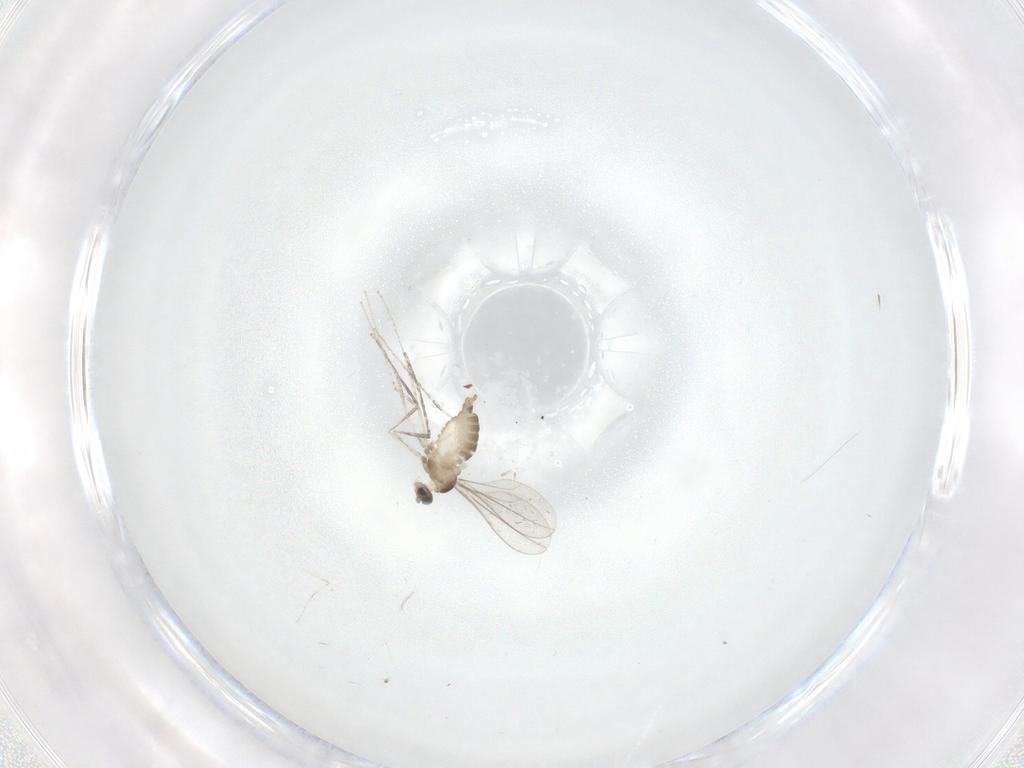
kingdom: Animalia
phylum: Arthropoda
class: Insecta
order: Diptera
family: Cecidomyiidae
